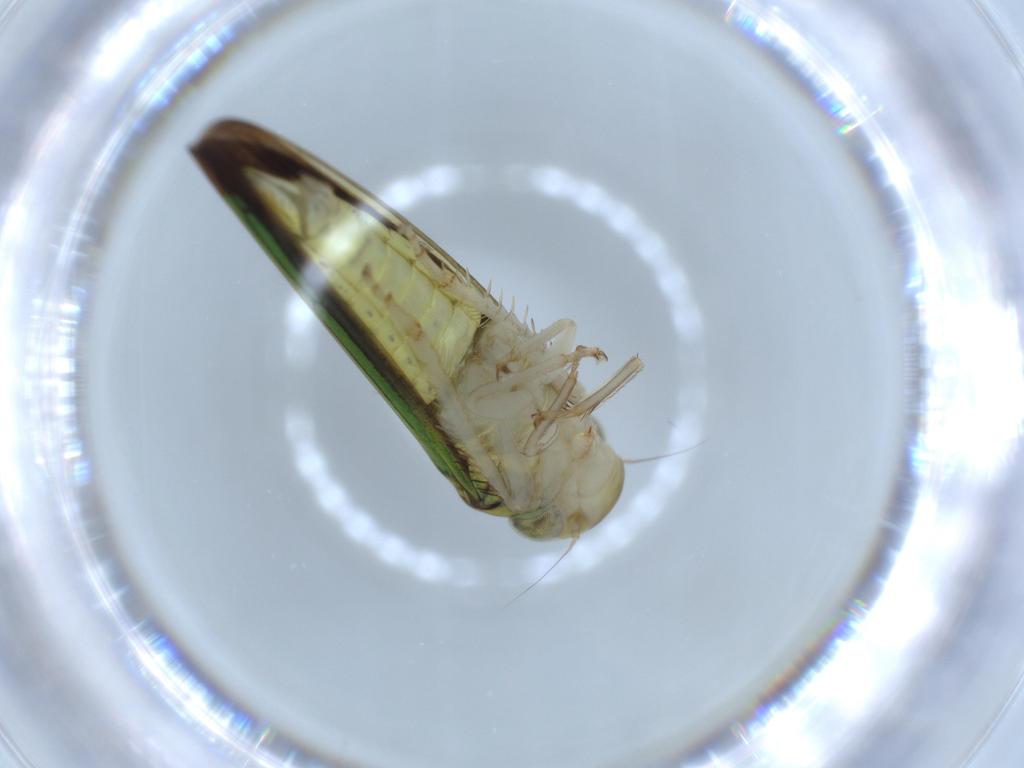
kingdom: Animalia
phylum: Arthropoda
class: Insecta
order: Hemiptera
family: Cicadellidae
